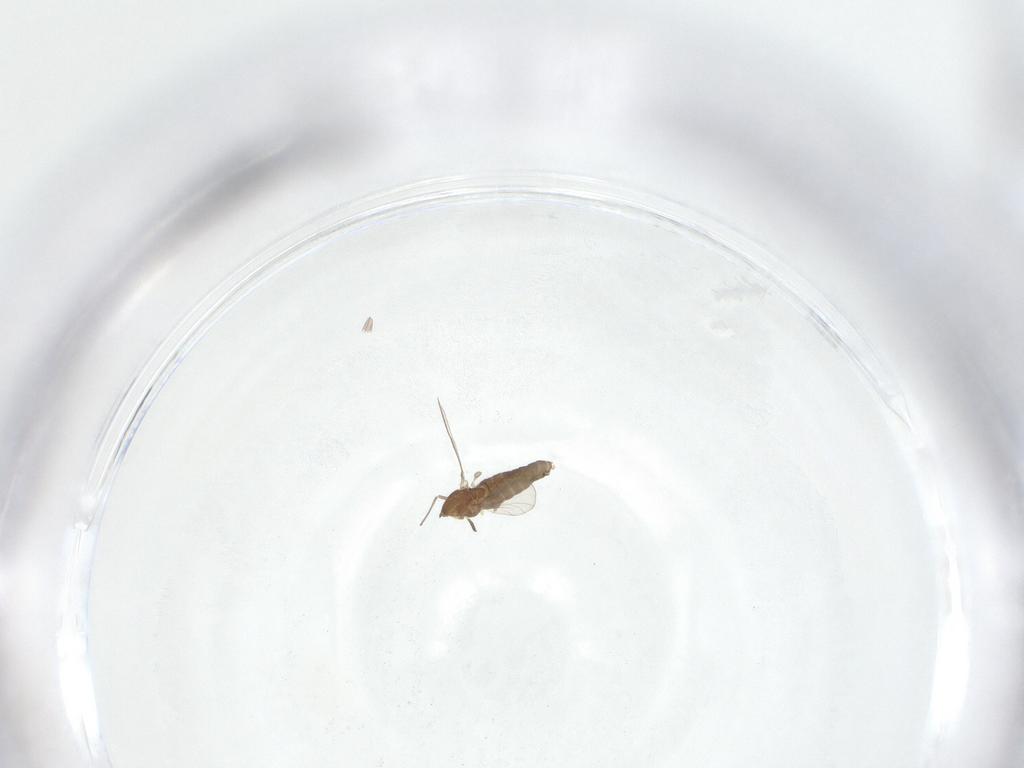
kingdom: Animalia
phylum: Arthropoda
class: Insecta
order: Diptera
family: Chironomidae
